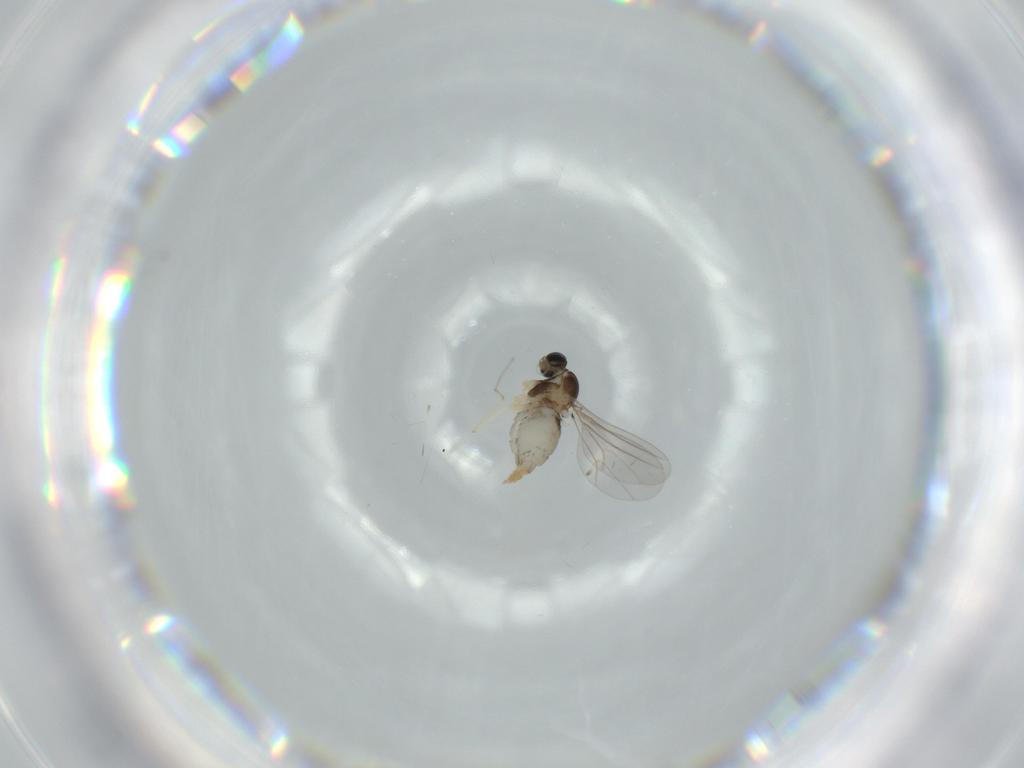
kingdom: Animalia
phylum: Arthropoda
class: Insecta
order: Diptera
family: Cecidomyiidae
